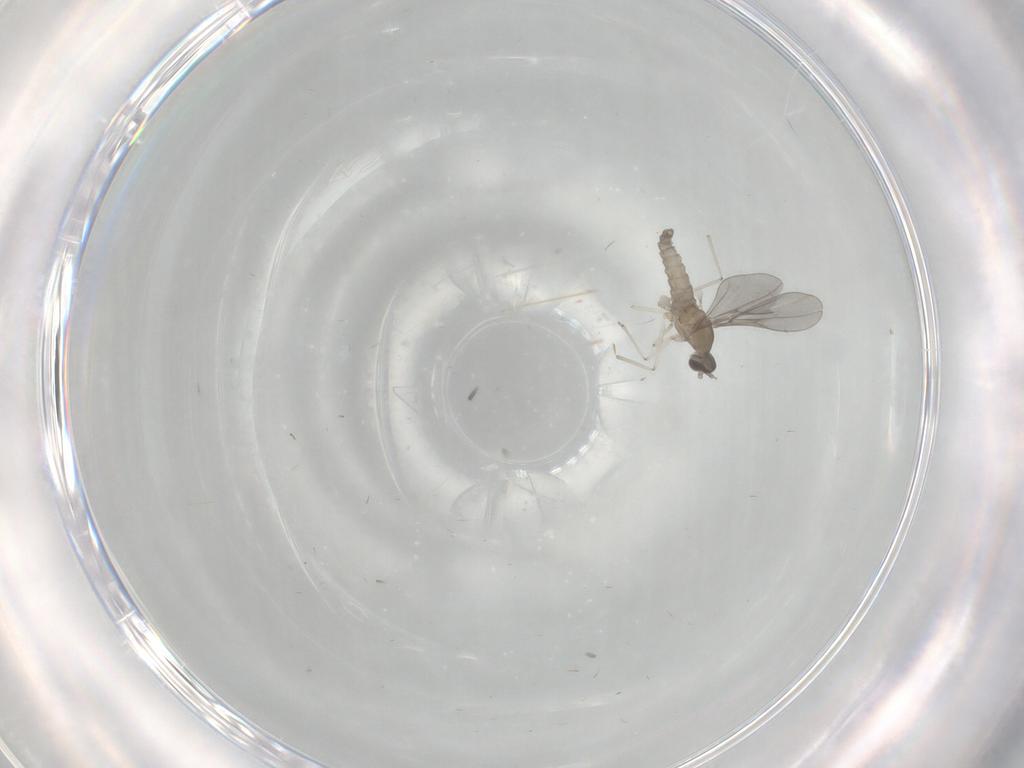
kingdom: Animalia
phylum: Arthropoda
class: Insecta
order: Diptera
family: Cecidomyiidae
